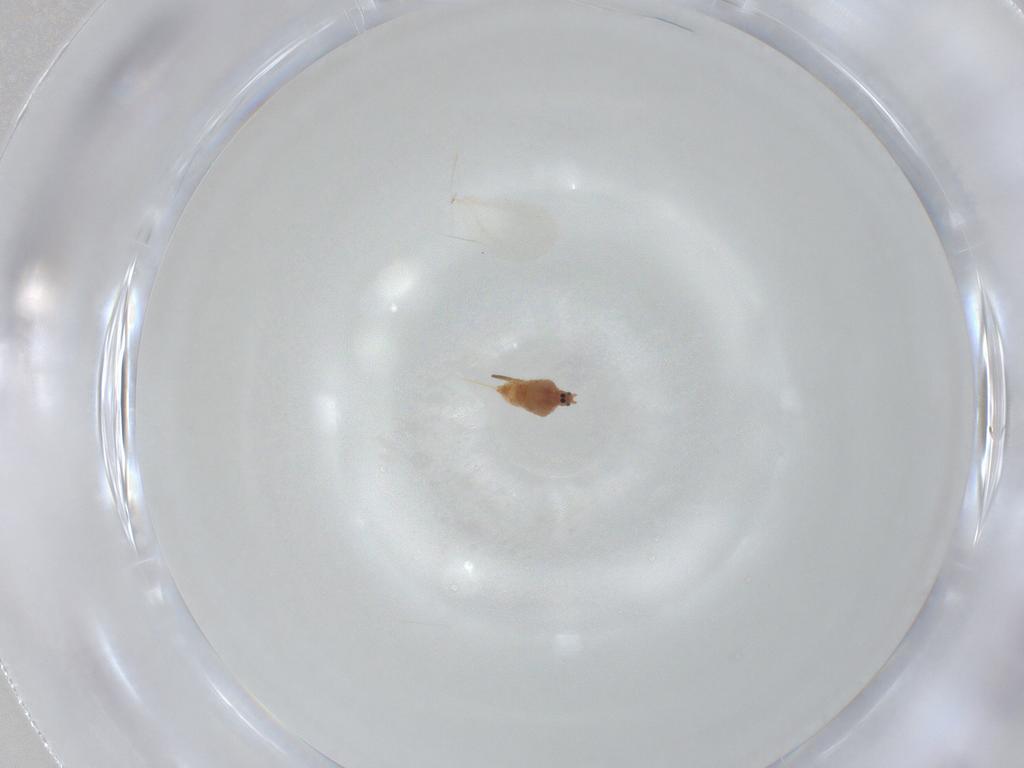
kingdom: Animalia
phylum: Arthropoda
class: Insecta
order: Hemiptera
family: Diaspididae
